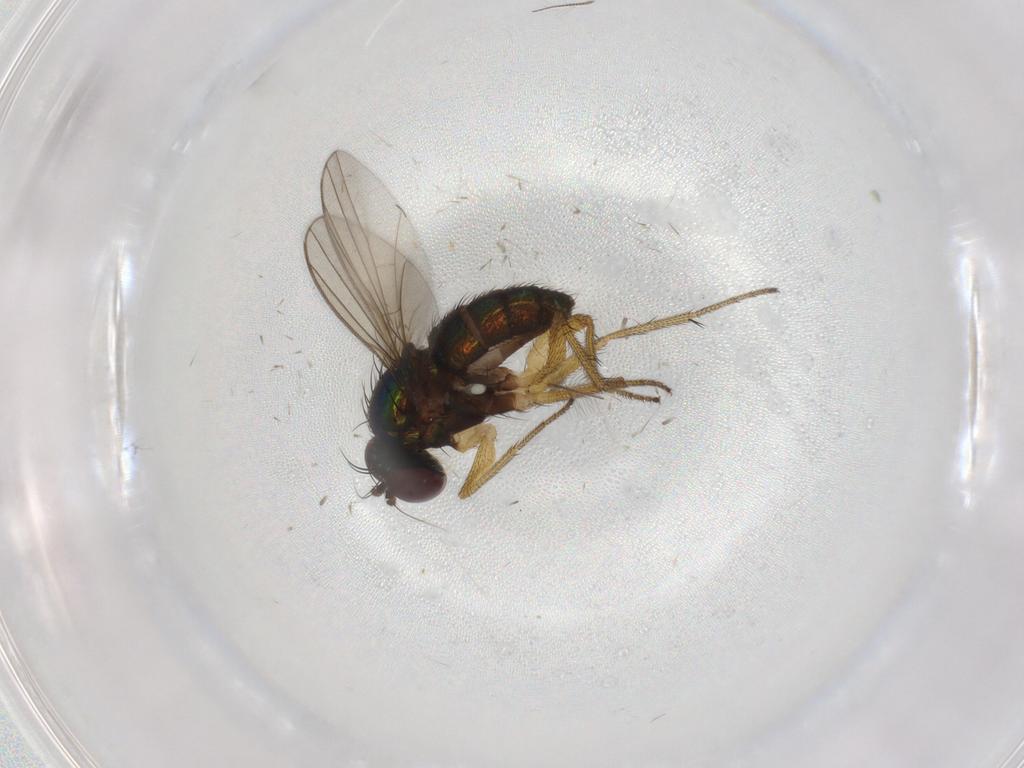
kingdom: Animalia
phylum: Arthropoda
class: Insecta
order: Diptera
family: Dolichopodidae
